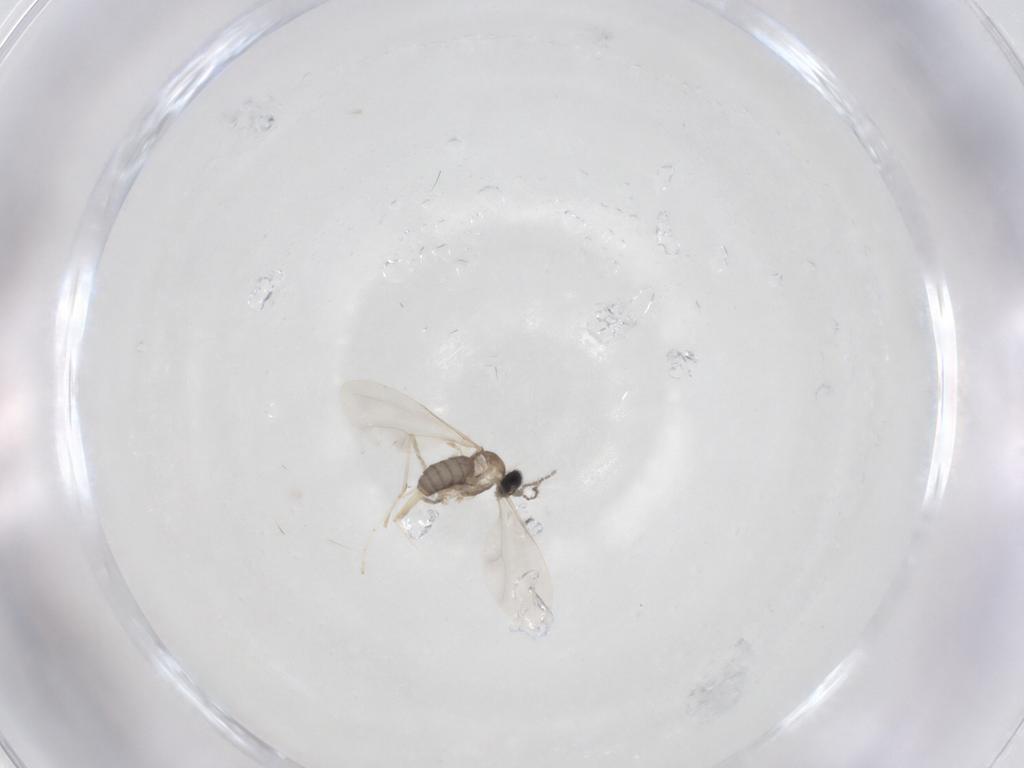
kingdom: Animalia
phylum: Arthropoda
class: Insecta
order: Diptera
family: Cecidomyiidae
